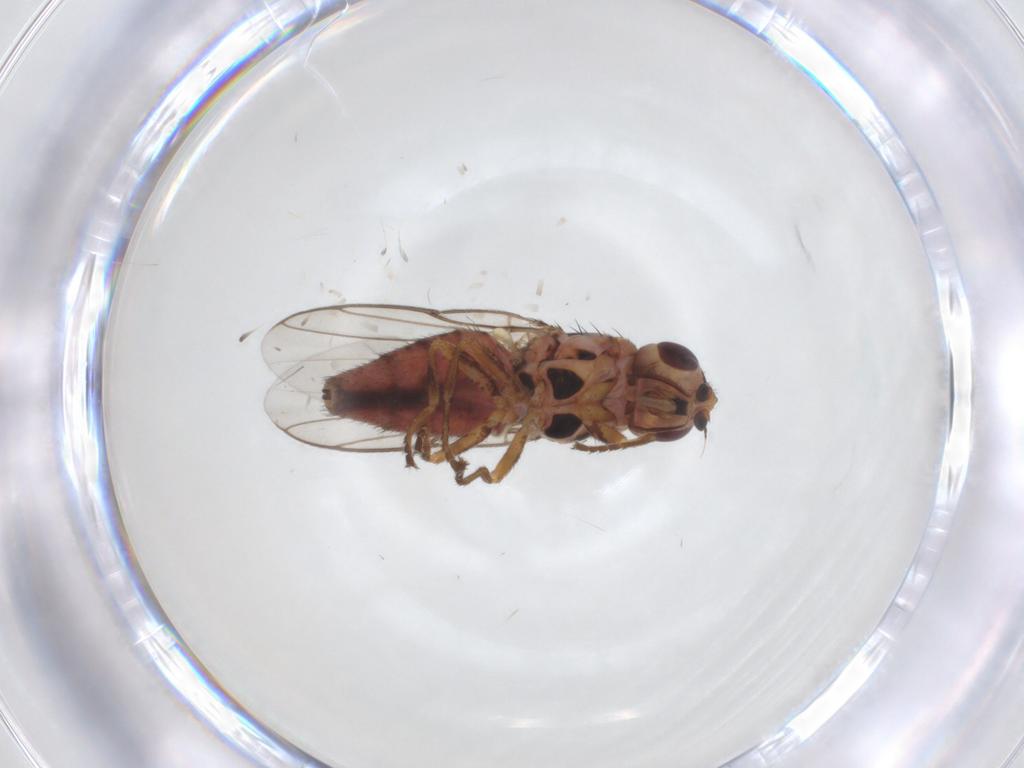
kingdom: Animalia
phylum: Arthropoda
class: Insecta
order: Diptera
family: Chloropidae
